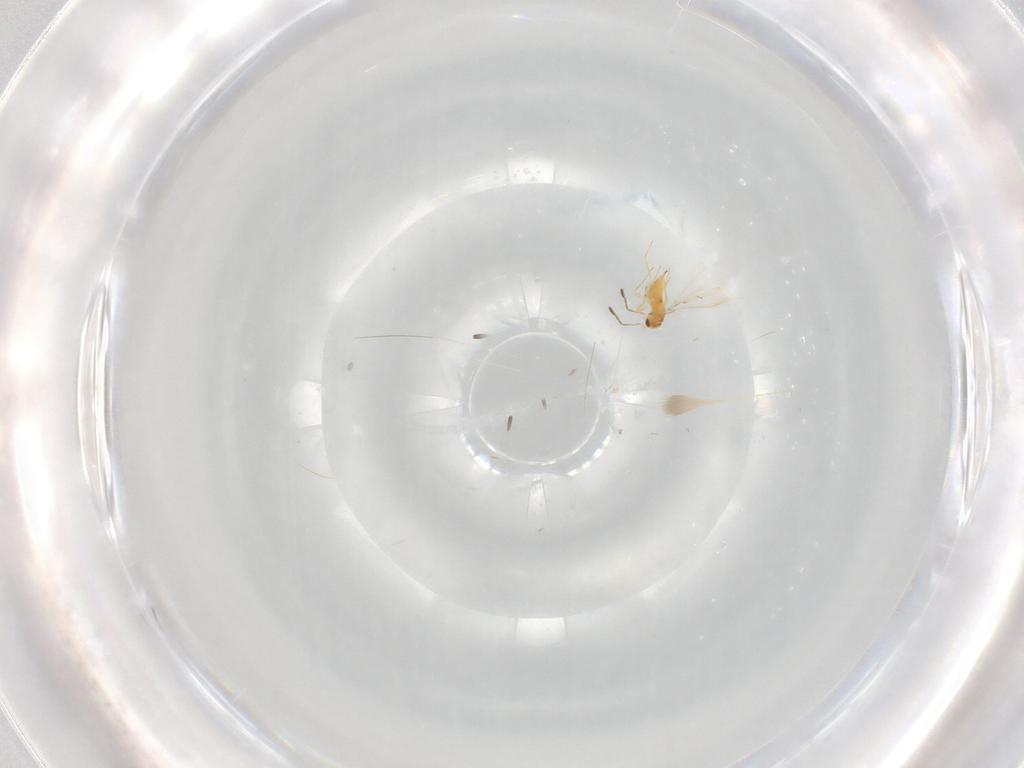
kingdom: Animalia
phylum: Arthropoda
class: Insecta
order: Hymenoptera
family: Mymaridae
